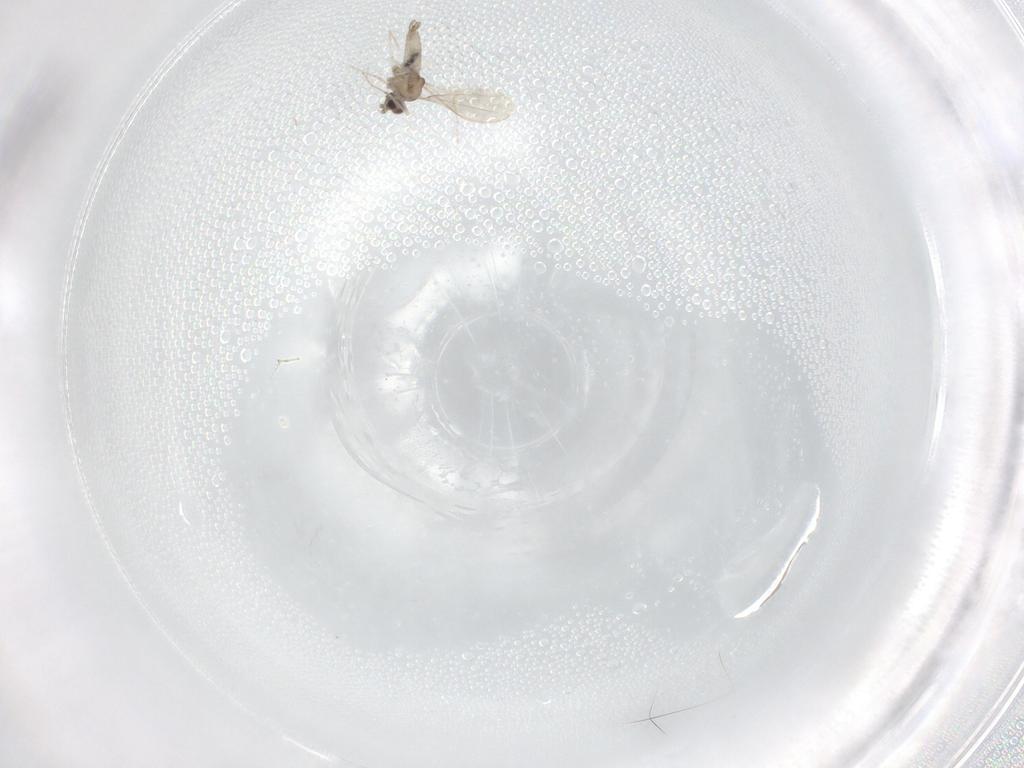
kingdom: Animalia
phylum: Arthropoda
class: Insecta
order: Diptera
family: Cecidomyiidae
